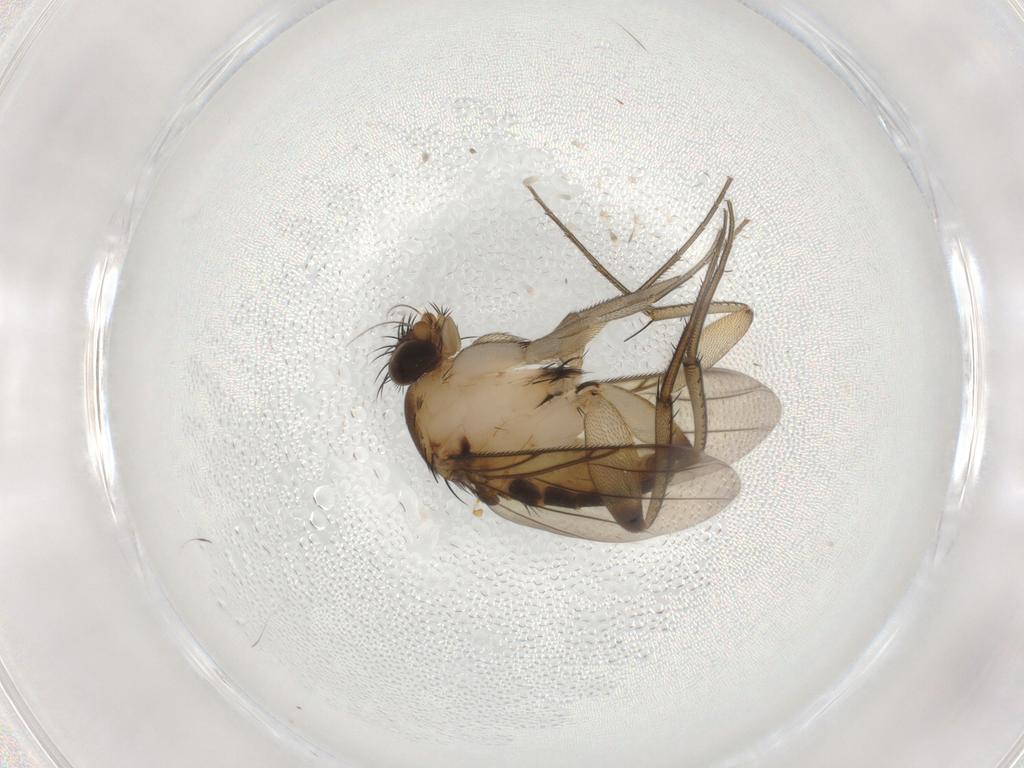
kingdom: Animalia
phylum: Arthropoda
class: Insecta
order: Diptera
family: Phoridae
